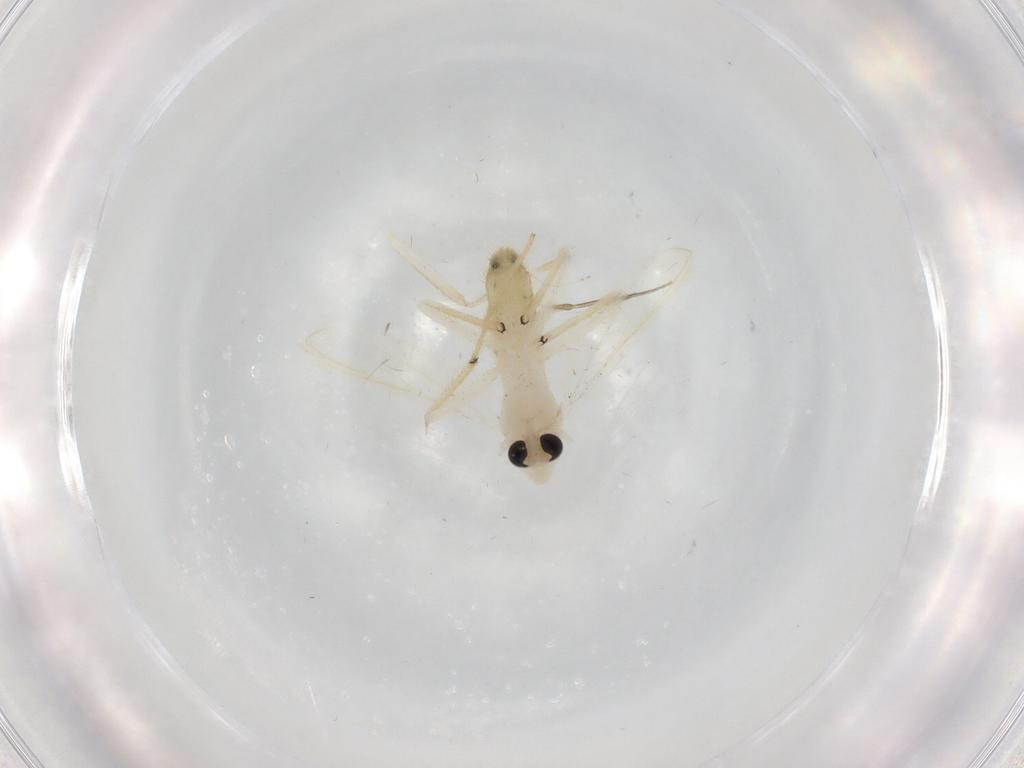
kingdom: Animalia
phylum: Arthropoda
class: Insecta
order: Diptera
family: Chironomidae
